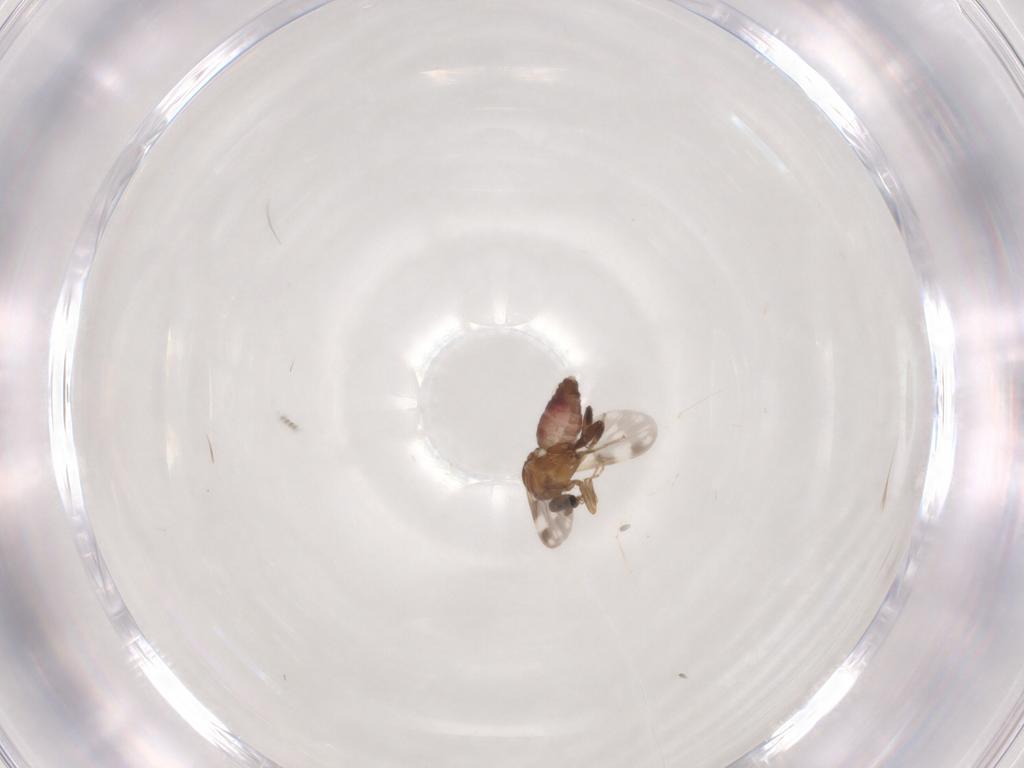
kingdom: Animalia
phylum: Arthropoda
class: Insecta
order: Diptera
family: Ceratopogonidae
